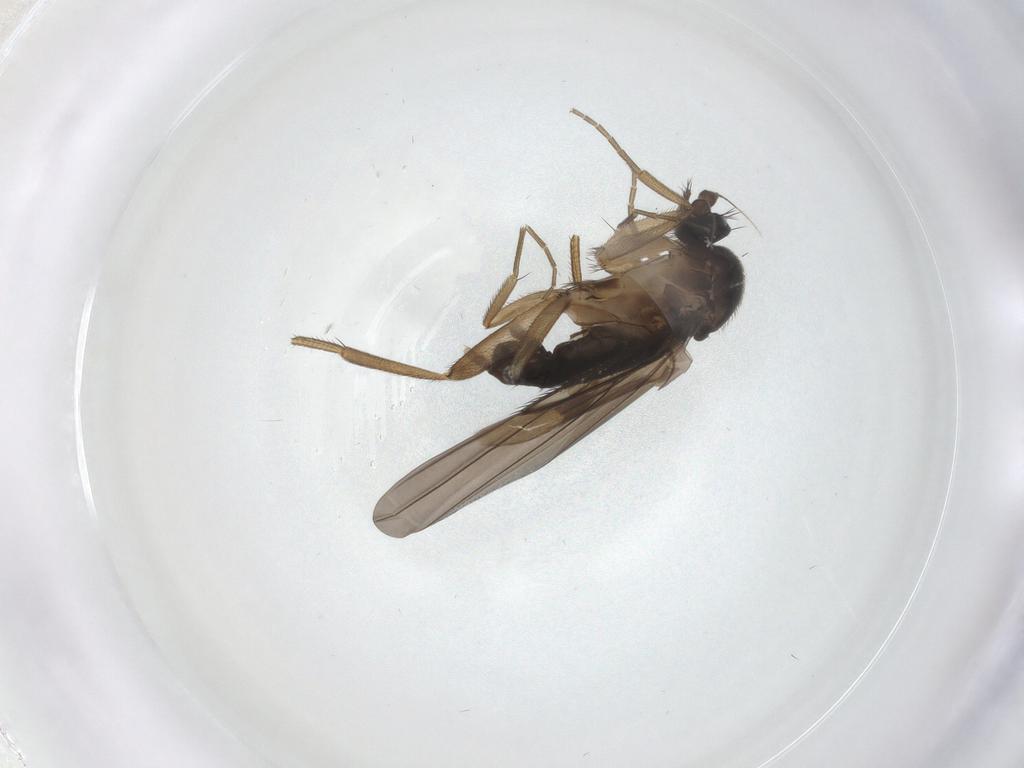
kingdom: Animalia
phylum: Arthropoda
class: Insecta
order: Diptera
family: Phoridae
